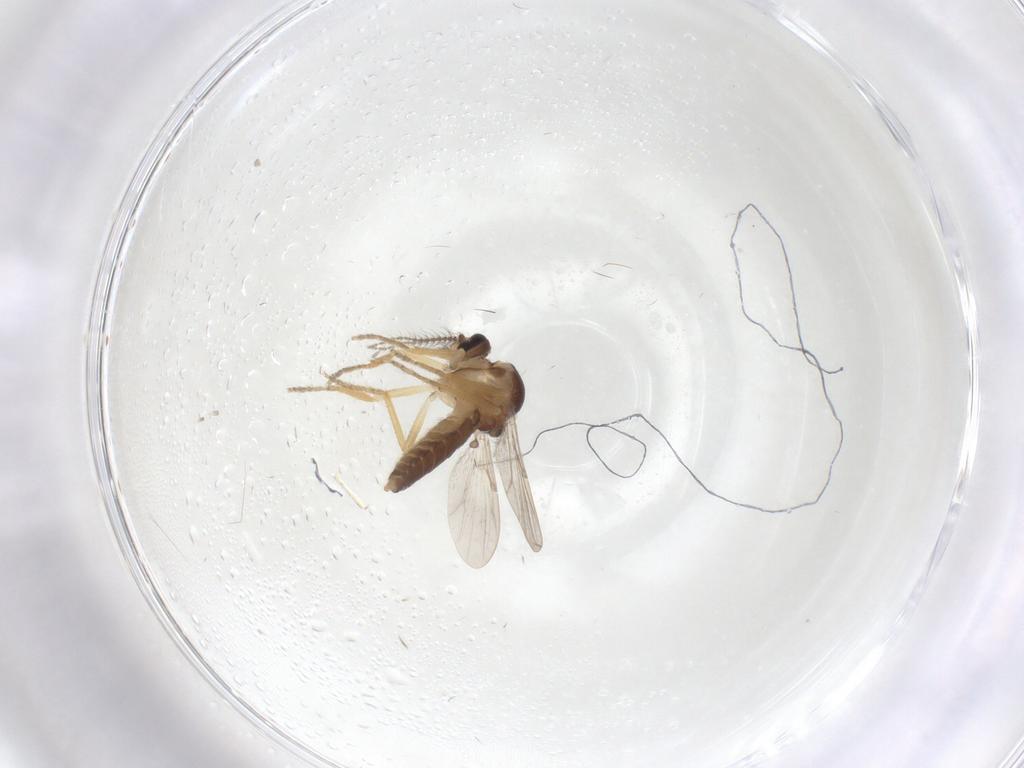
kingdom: Animalia
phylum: Arthropoda
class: Insecta
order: Diptera
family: Ceratopogonidae
